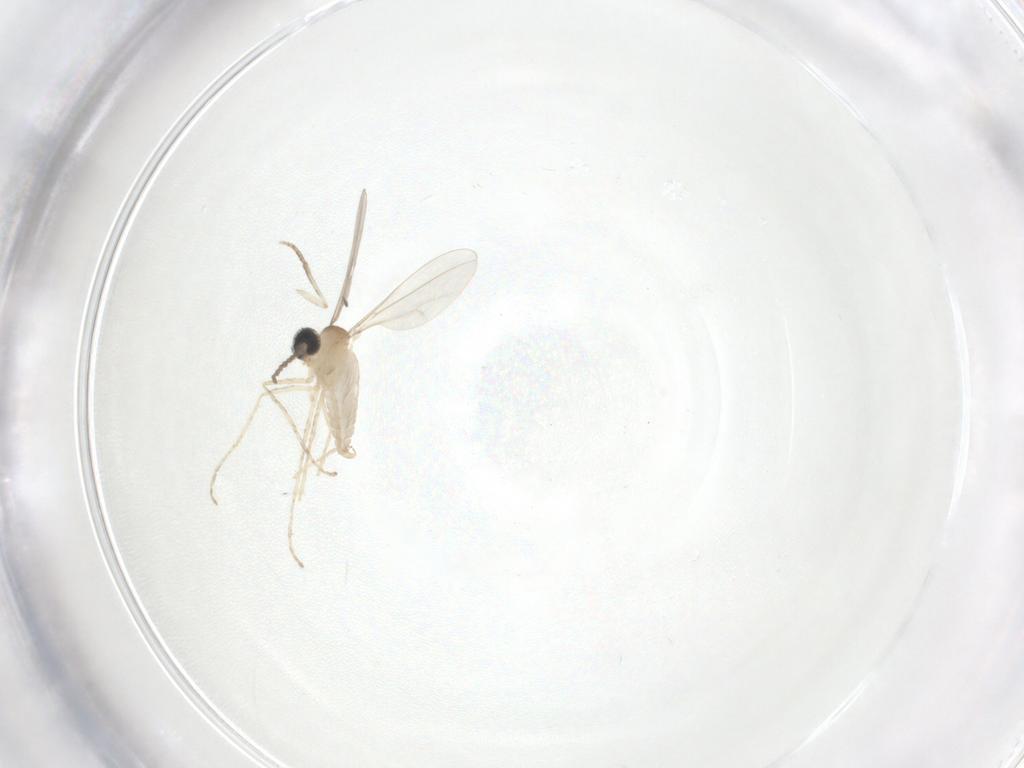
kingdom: Animalia
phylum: Arthropoda
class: Insecta
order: Diptera
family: Cecidomyiidae
